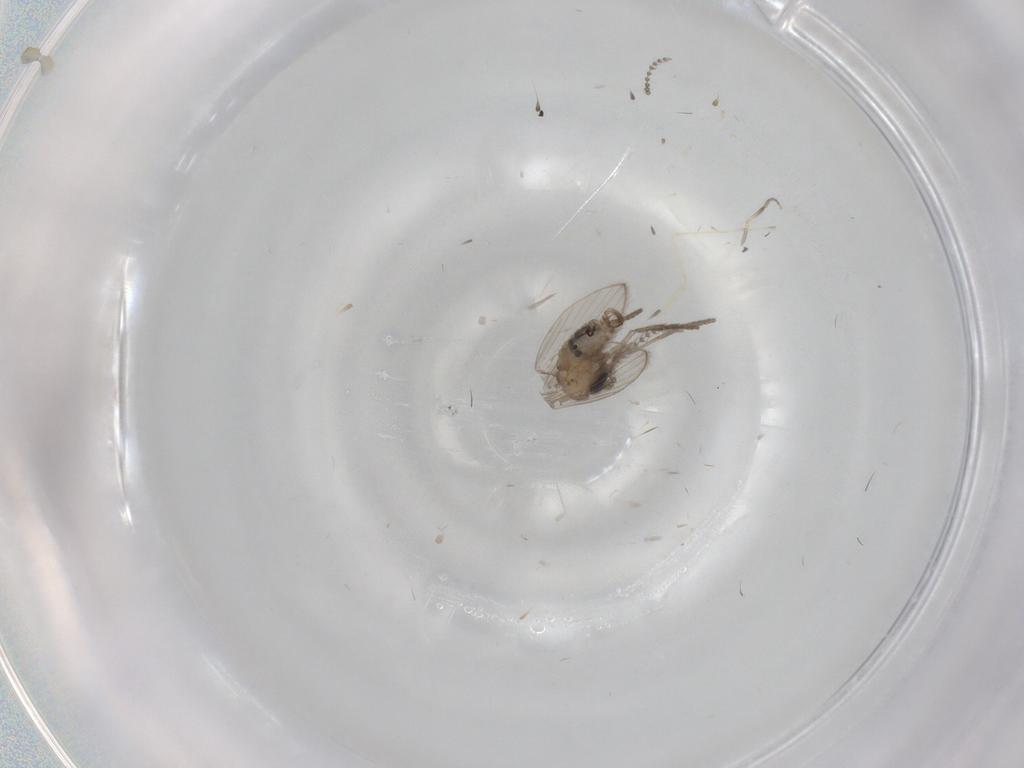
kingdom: Animalia
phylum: Arthropoda
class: Insecta
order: Diptera
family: Psychodidae
